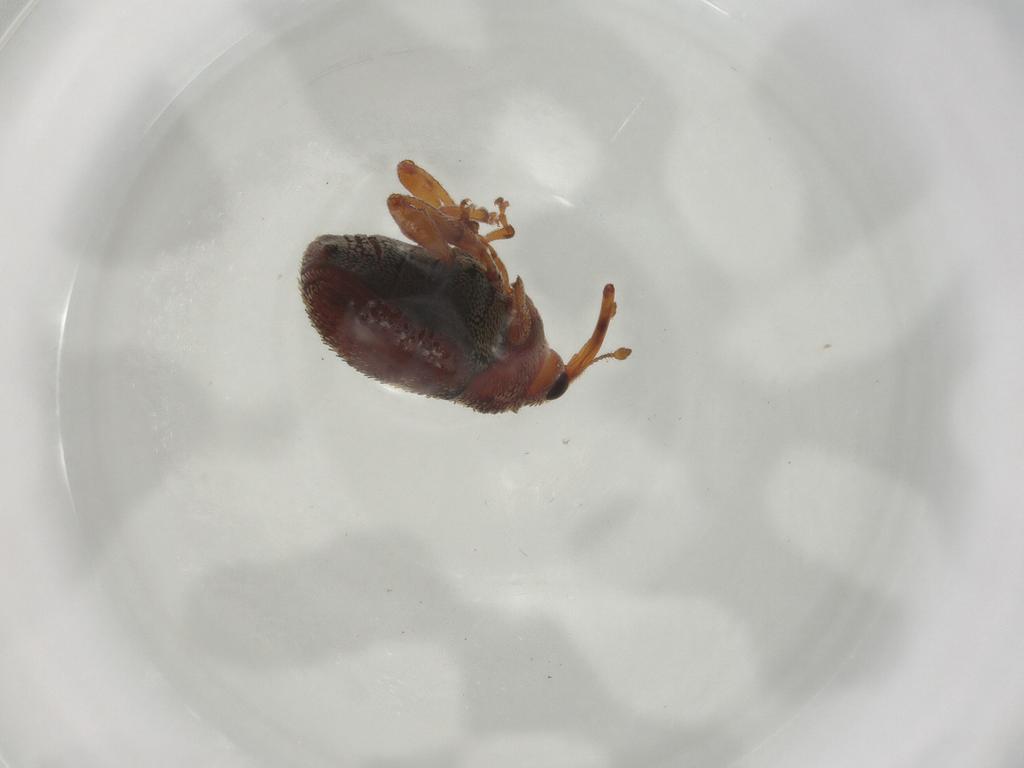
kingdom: Animalia
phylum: Arthropoda
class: Insecta
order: Coleoptera
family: Curculionidae
